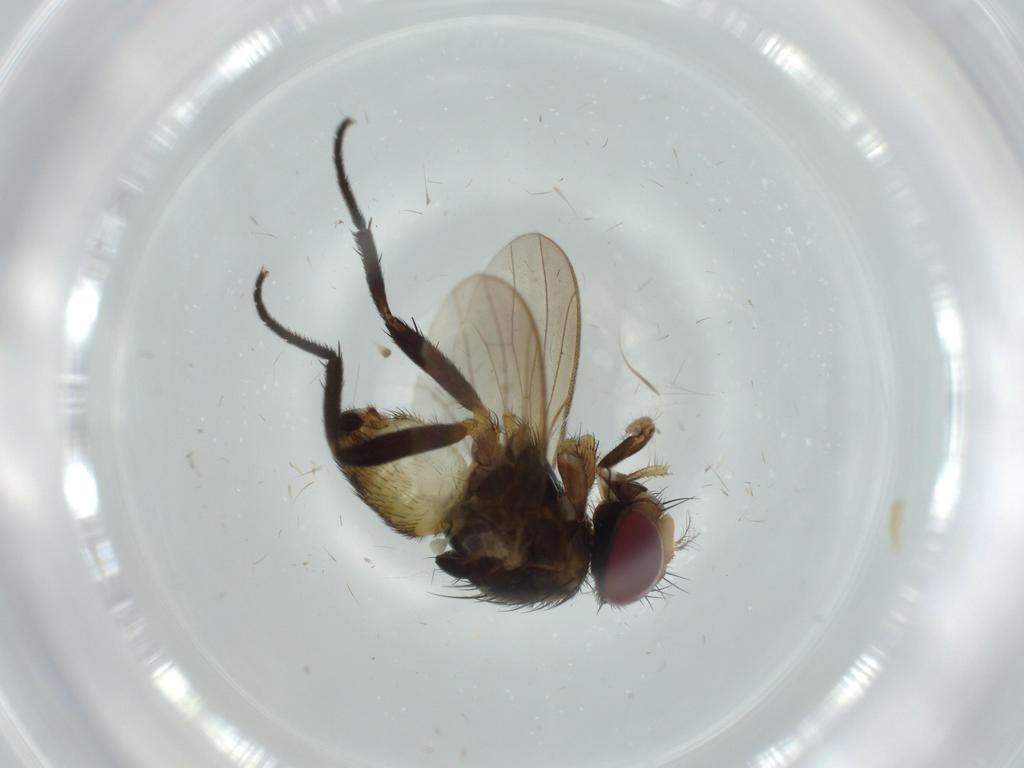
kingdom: Animalia
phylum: Arthropoda
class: Insecta
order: Diptera
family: Anthomyiidae
